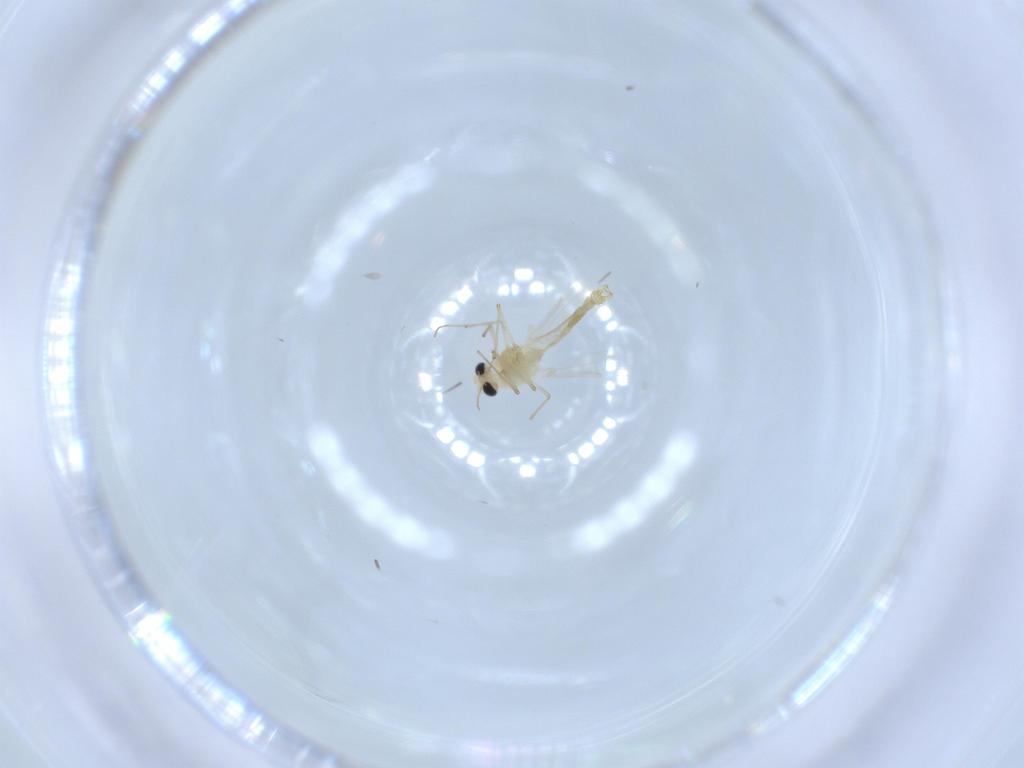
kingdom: Animalia
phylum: Arthropoda
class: Insecta
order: Diptera
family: Chironomidae
